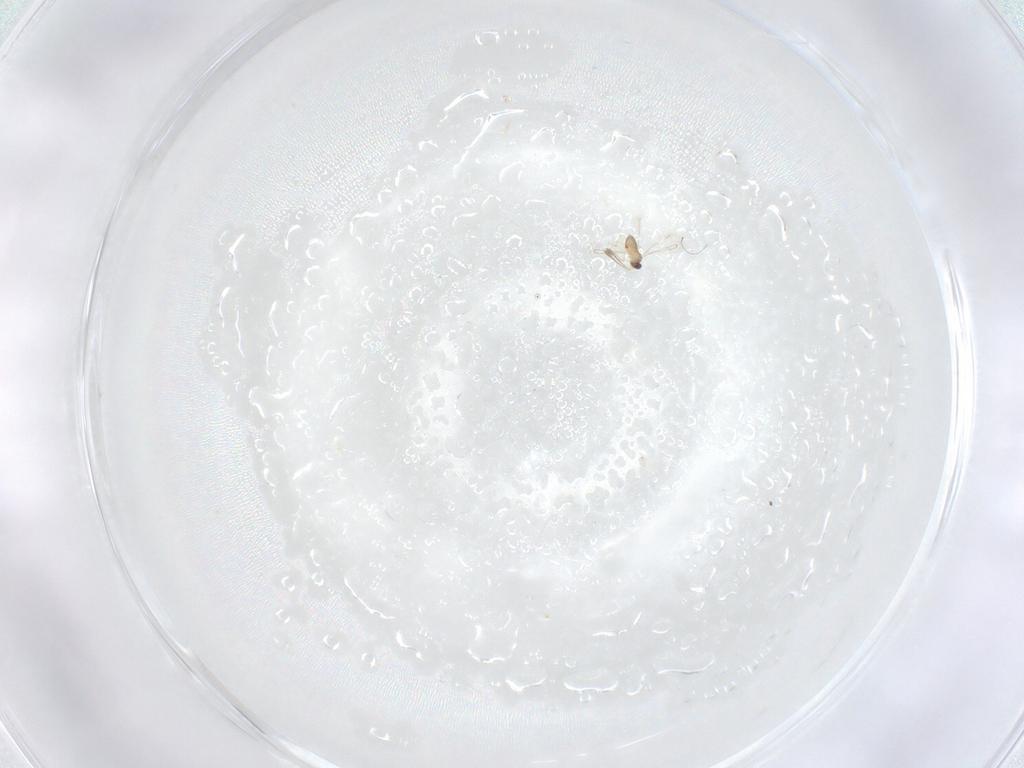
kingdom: Animalia
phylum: Arthropoda
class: Insecta
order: Hymenoptera
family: Mymaridae
